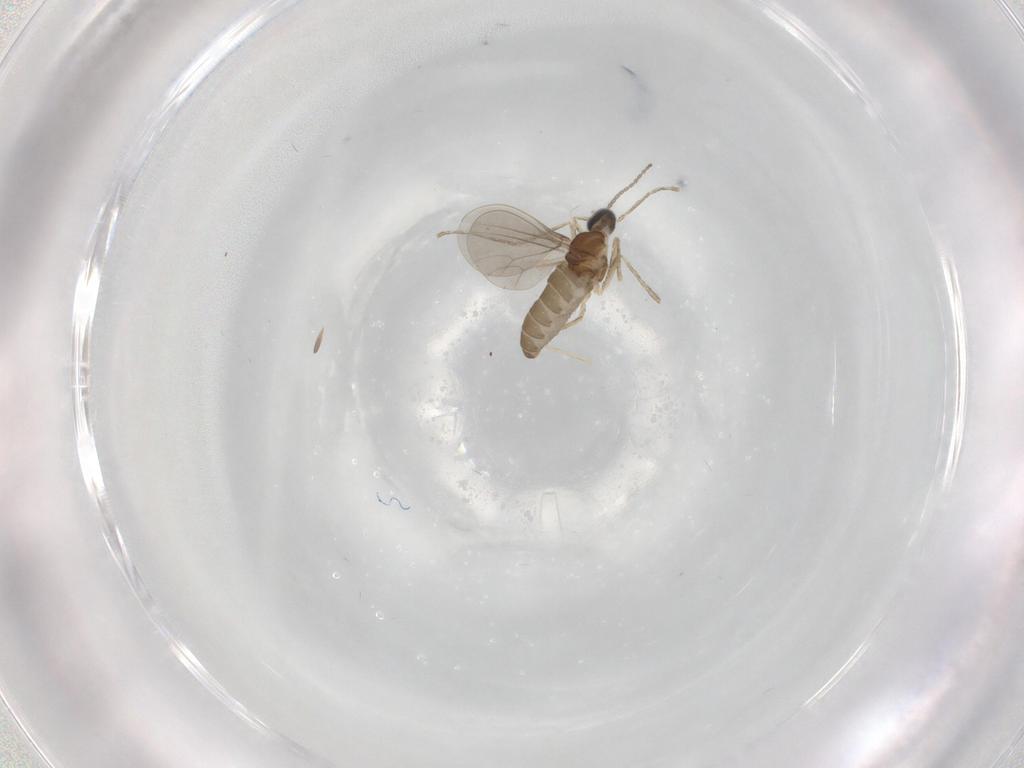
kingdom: Animalia
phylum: Arthropoda
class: Insecta
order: Diptera
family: Cecidomyiidae
